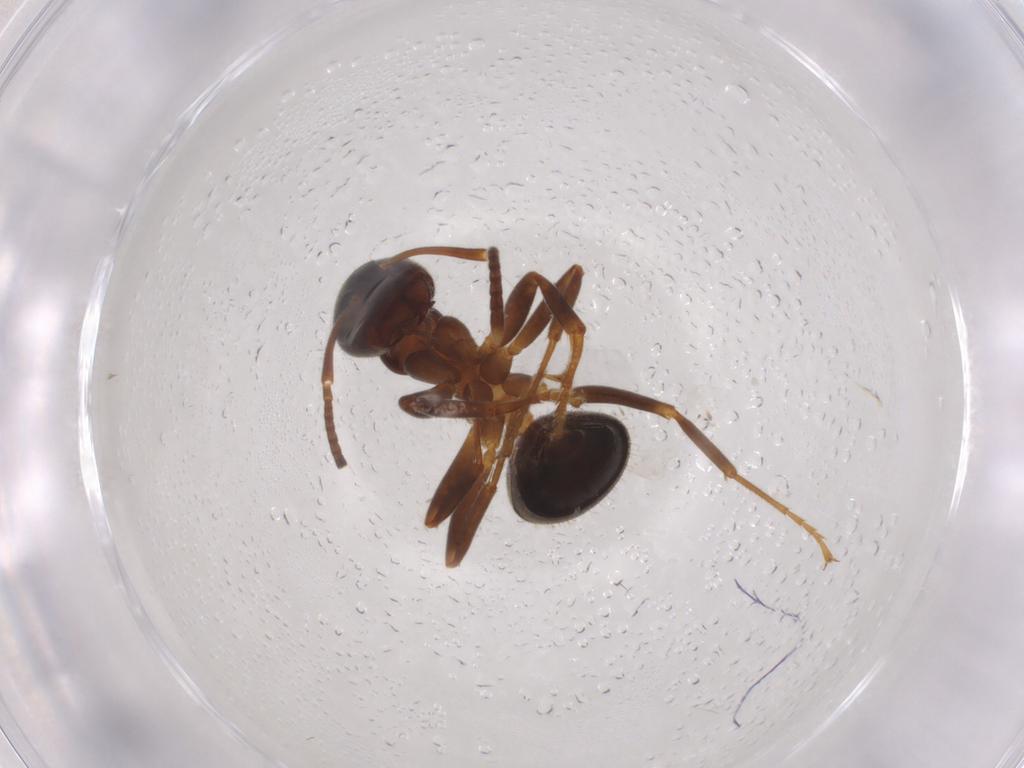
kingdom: Animalia
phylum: Arthropoda
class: Insecta
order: Hymenoptera
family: Formicidae
